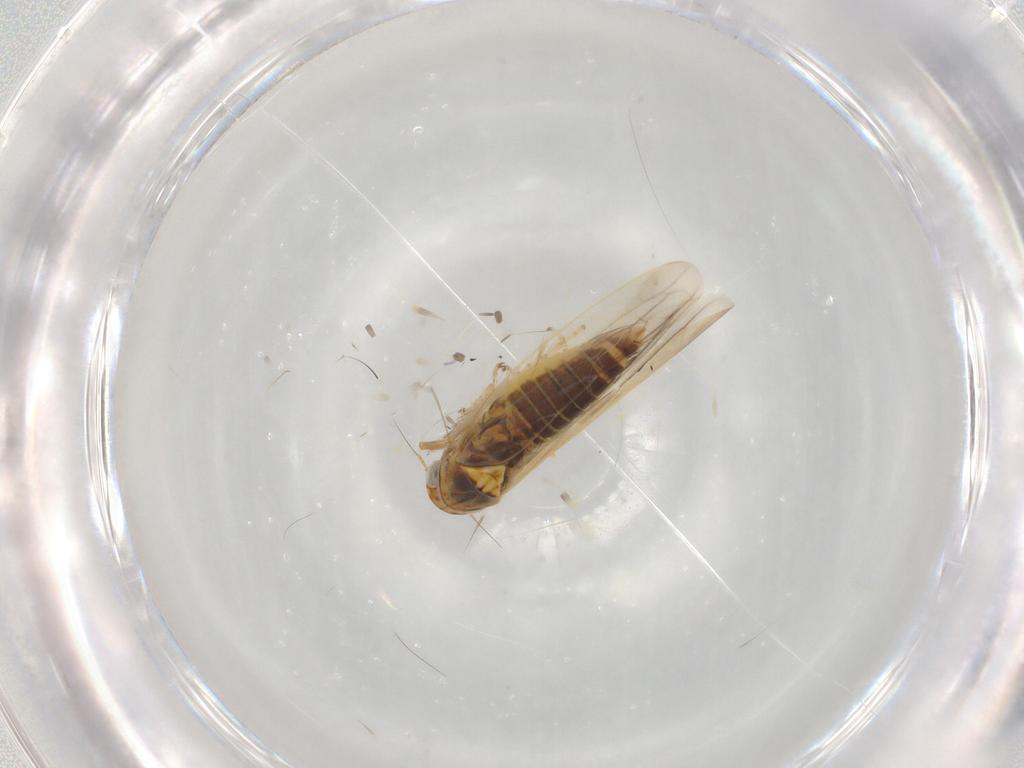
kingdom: Animalia
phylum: Arthropoda
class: Insecta
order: Hemiptera
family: Cicadellidae
